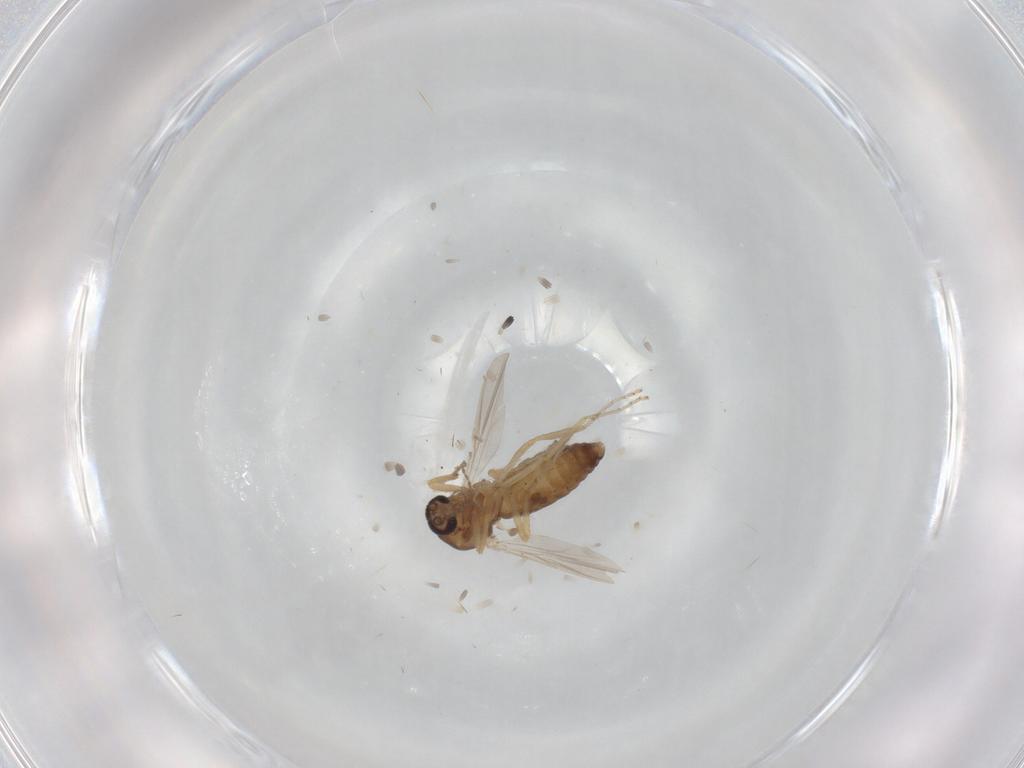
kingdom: Animalia
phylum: Arthropoda
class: Insecta
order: Diptera
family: Ceratopogonidae
